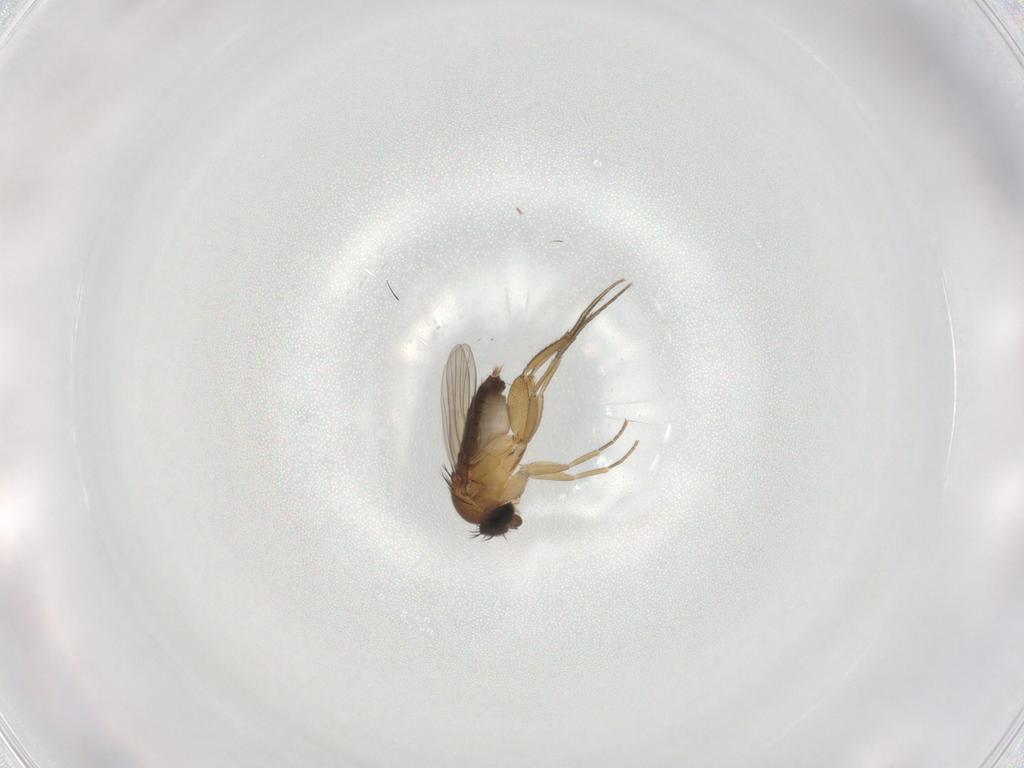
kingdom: Animalia
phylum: Arthropoda
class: Insecta
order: Diptera
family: Phoridae
